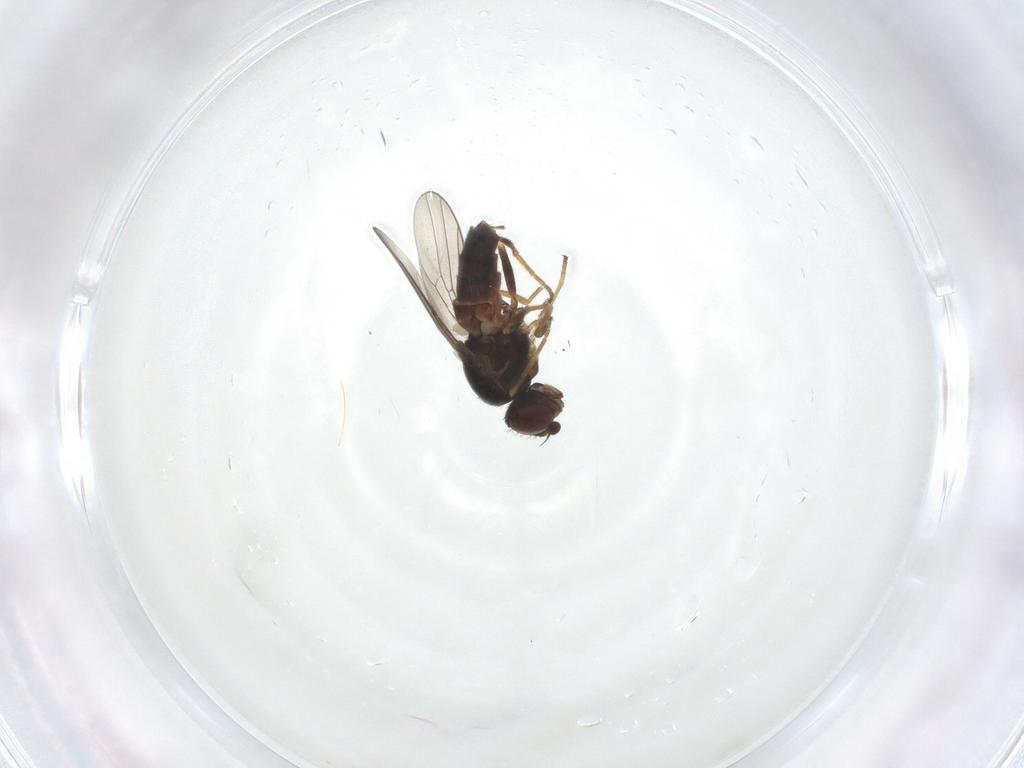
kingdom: Animalia
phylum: Arthropoda
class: Insecta
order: Diptera
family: Chloropidae
